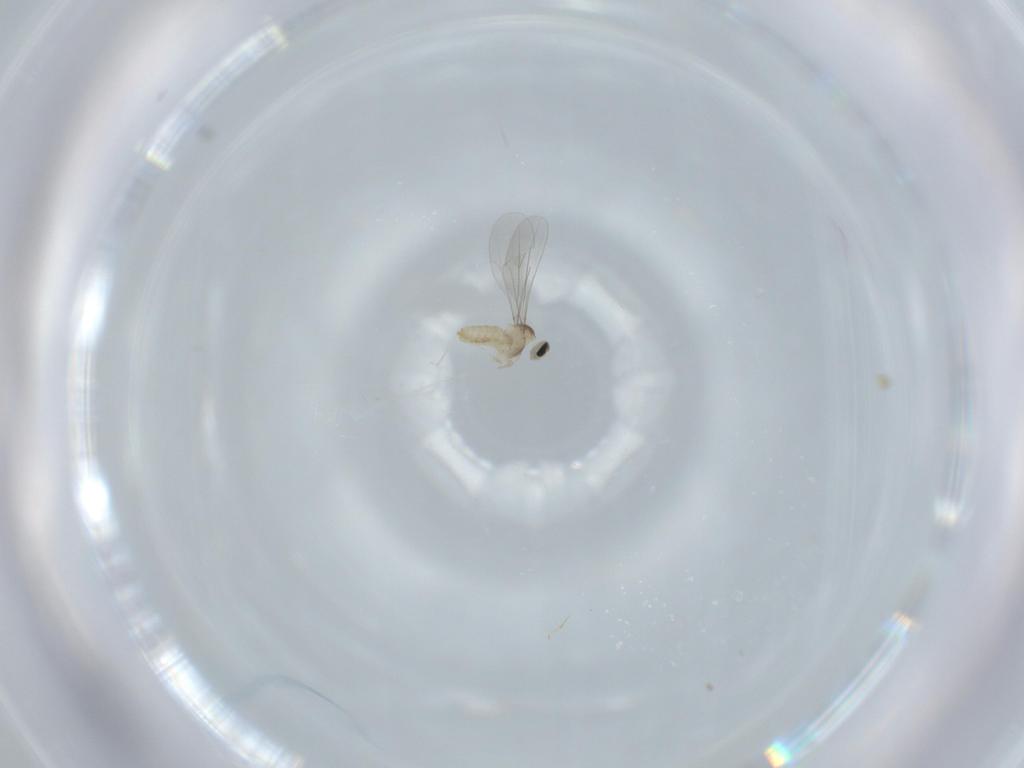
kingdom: Animalia
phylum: Arthropoda
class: Insecta
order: Diptera
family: Cecidomyiidae
